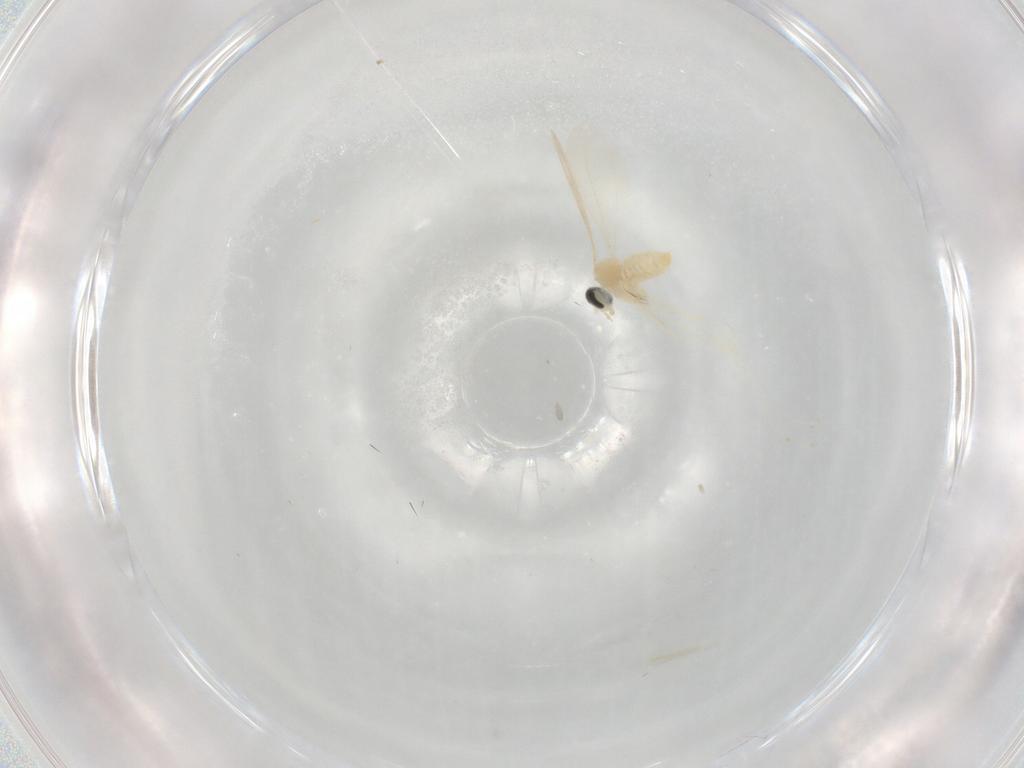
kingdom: Animalia
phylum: Arthropoda
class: Insecta
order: Diptera
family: Cecidomyiidae
